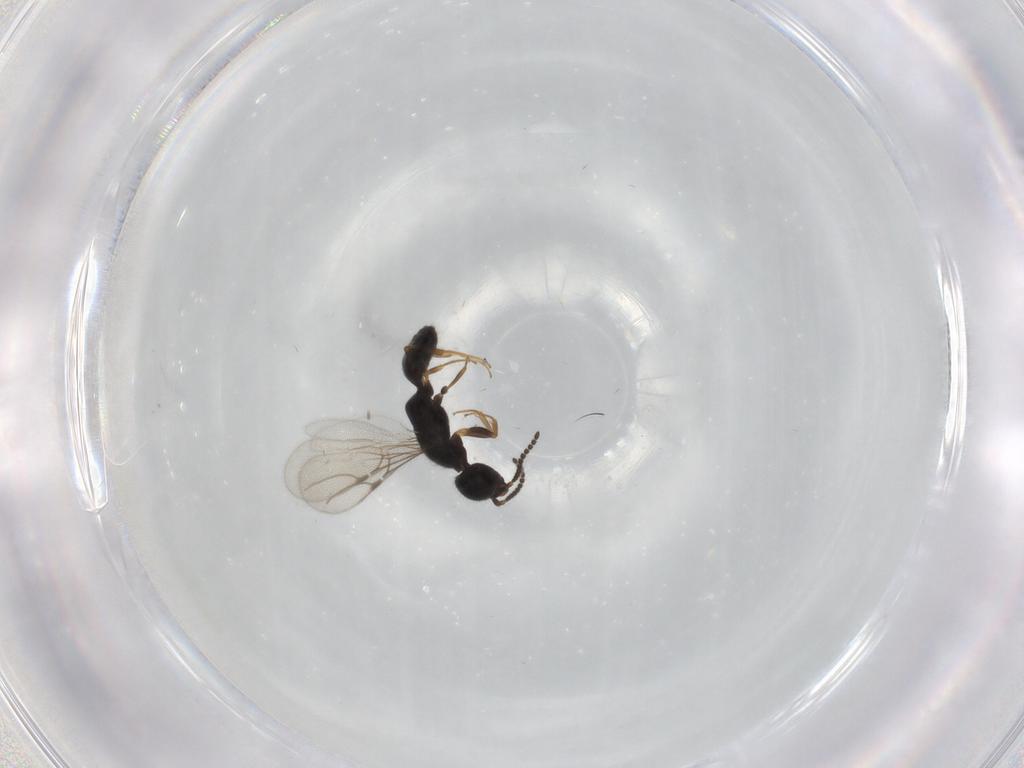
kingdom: Animalia
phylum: Arthropoda
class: Insecta
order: Hymenoptera
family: Bethylidae
